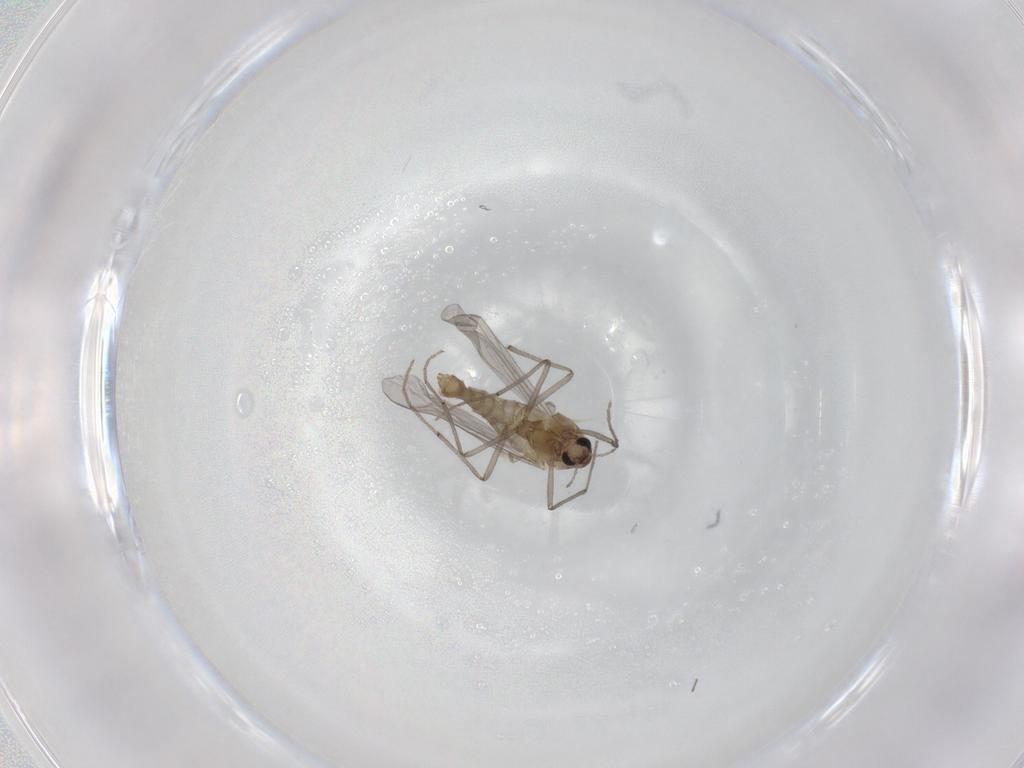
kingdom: Animalia
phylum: Arthropoda
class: Insecta
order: Diptera
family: Chironomidae
